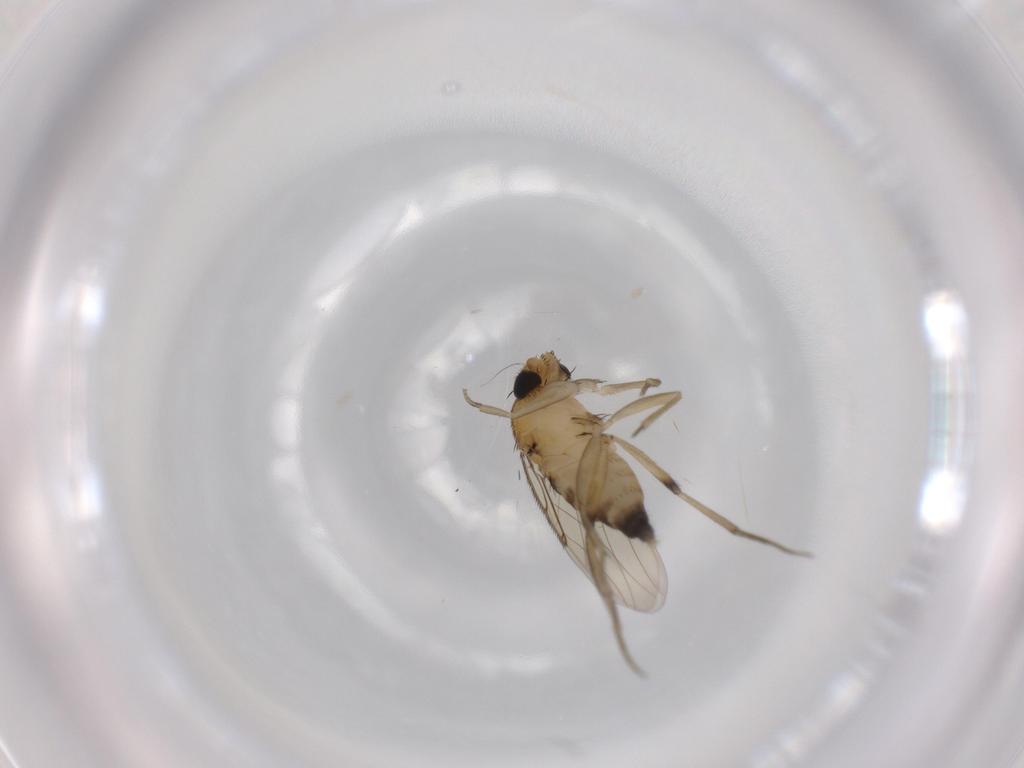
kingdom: Animalia
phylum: Arthropoda
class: Insecta
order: Diptera
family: Phoridae
